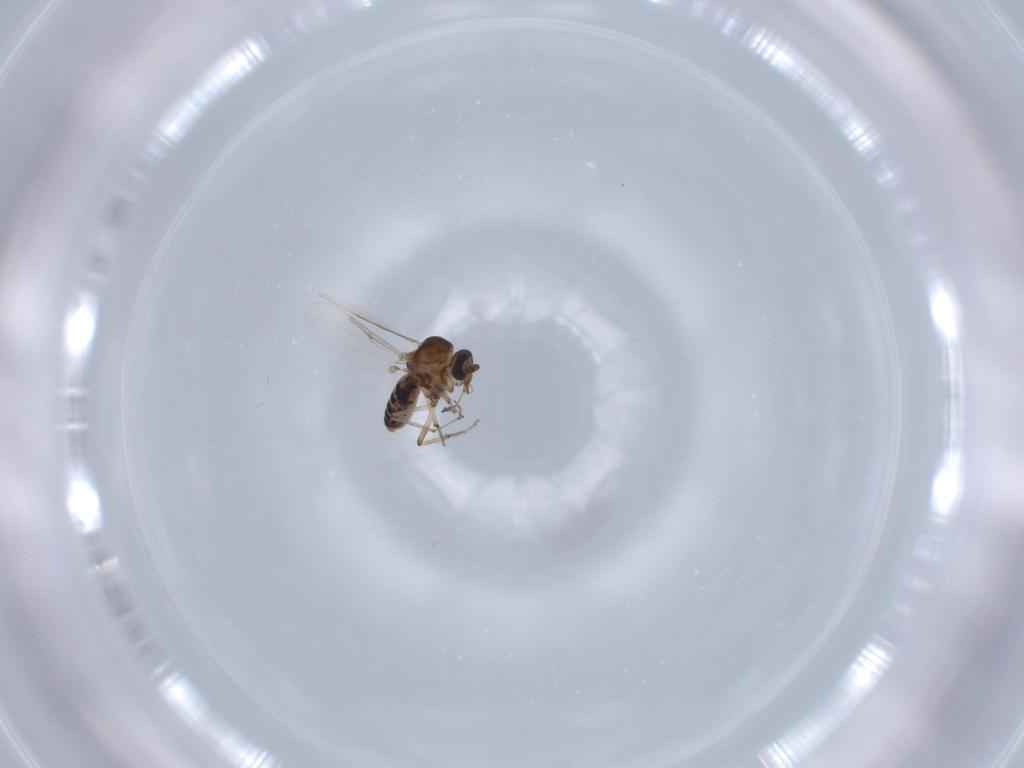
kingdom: Animalia
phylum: Arthropoda
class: Insecta
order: Diptera
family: Ceratopogonidae
